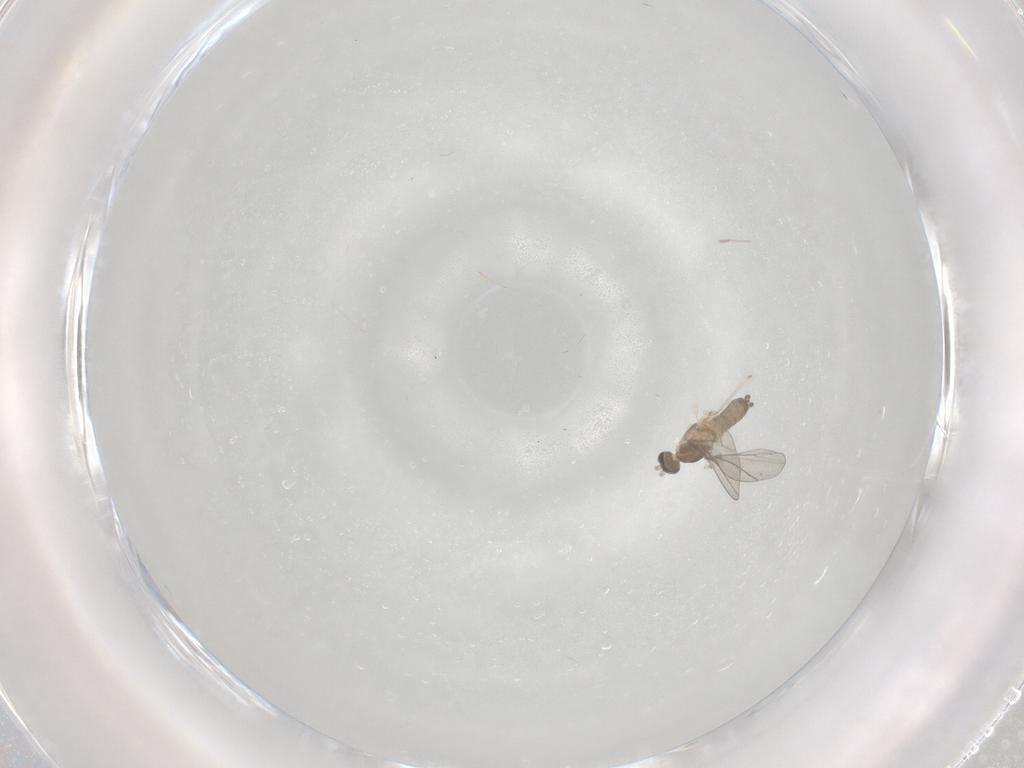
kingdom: Animalia
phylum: Arthropoda
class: Insecta
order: Diptera
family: Cecidomyiidae
